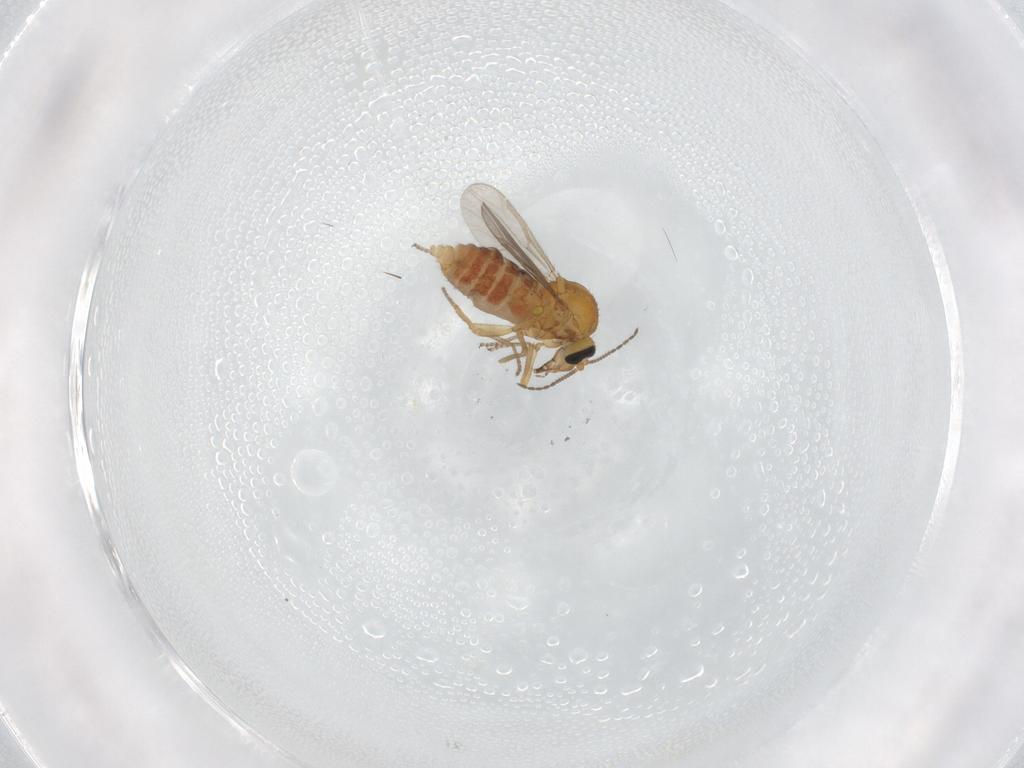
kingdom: Animalia
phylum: Arthropoda
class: Insecta
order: Diptera
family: Ceratopogonidae
